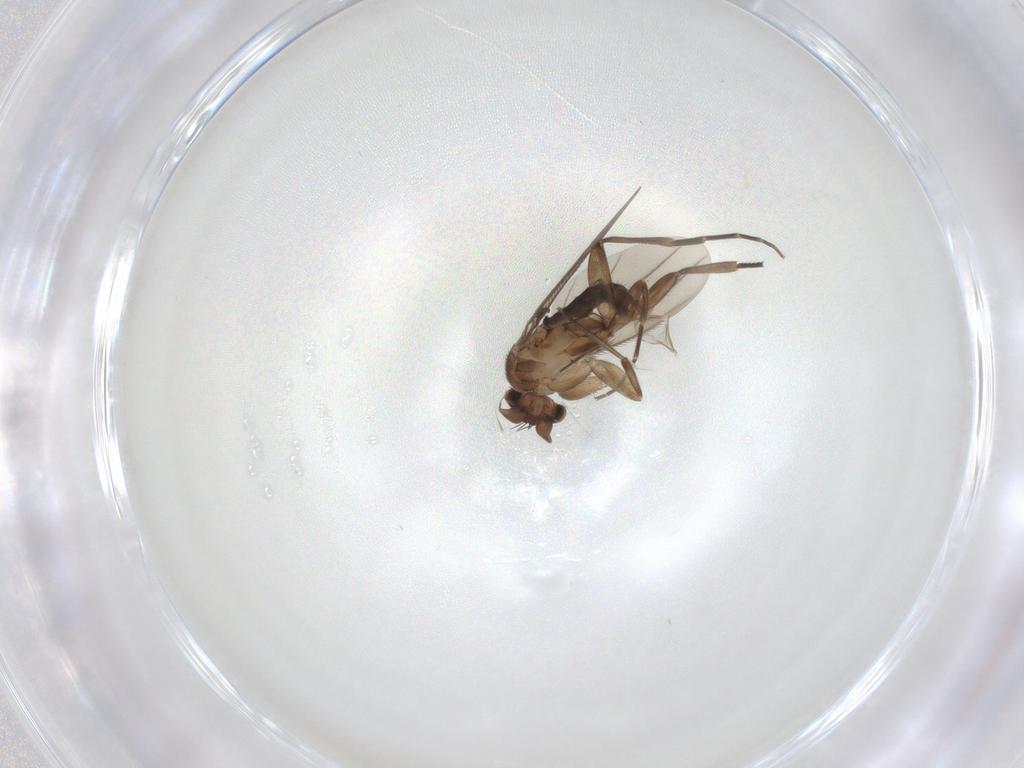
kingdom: Animalia
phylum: Arthropoda
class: Insecta
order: Diptera
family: Phoridae
